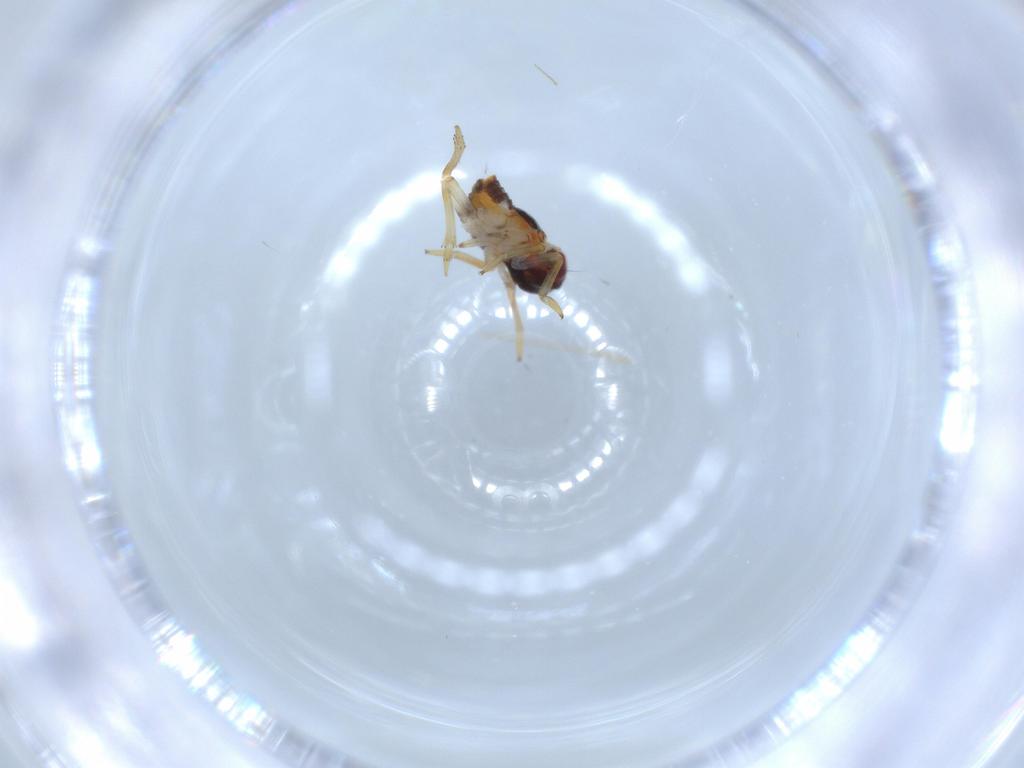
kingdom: Animalia
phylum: Arthropoda
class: Insecta
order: Hemiptera
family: Issidae
